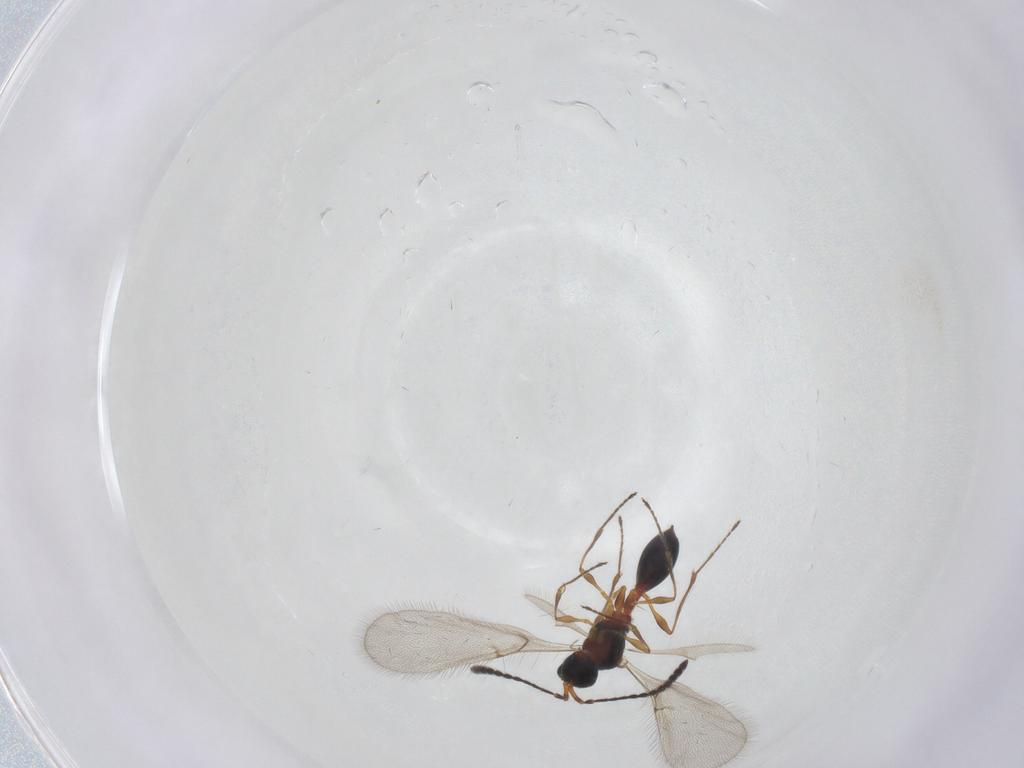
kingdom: Animalia
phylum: Arthropoda
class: Insecta
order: Hymenoptera
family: Diapriidae
